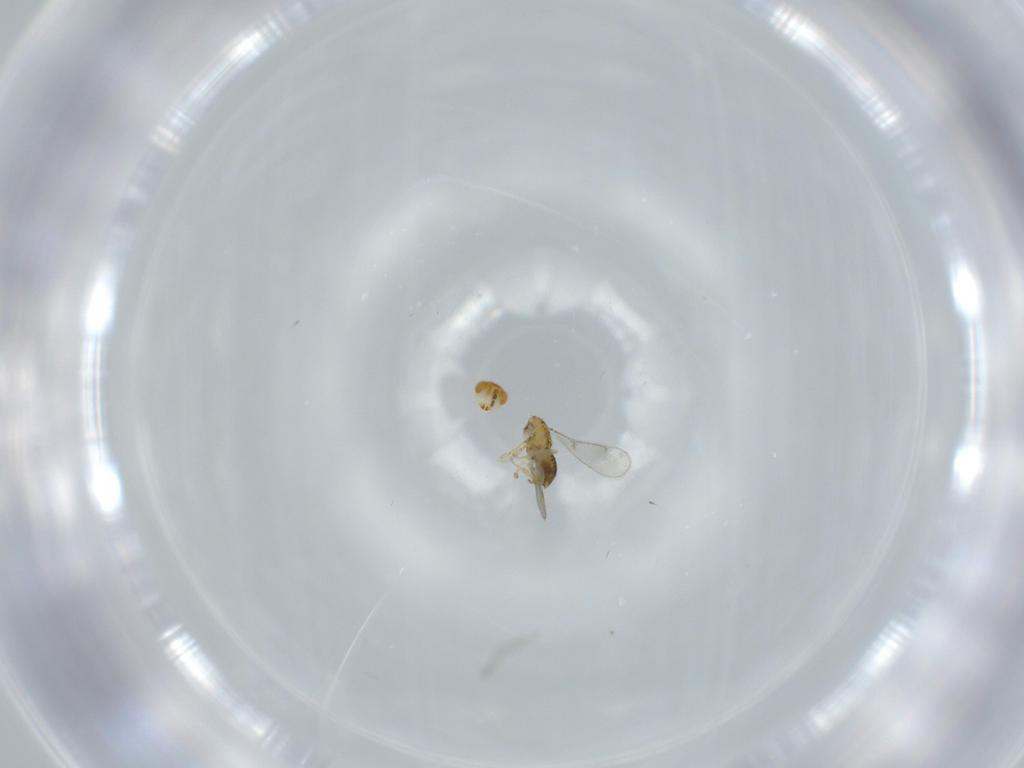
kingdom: Animalia
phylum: Arthropoda
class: Insecta
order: Hymenoptera
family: Aphelinidae
